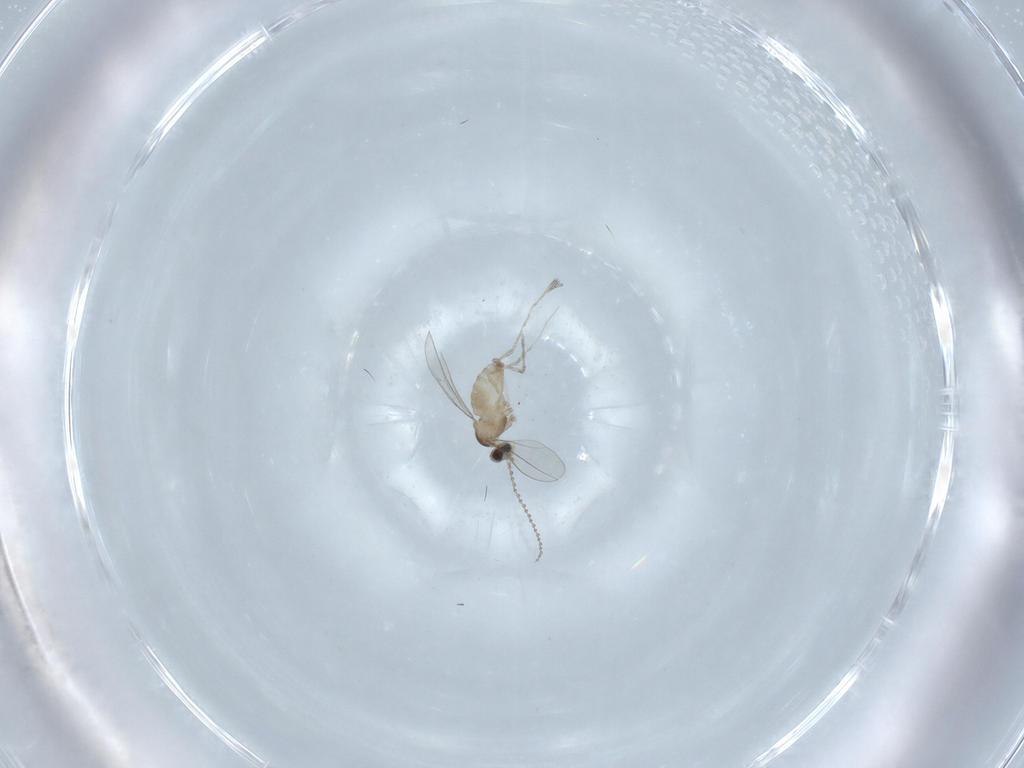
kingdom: Animalia
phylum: Arthropoda
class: Insecta
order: Diptera
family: Cecidomyiidae
